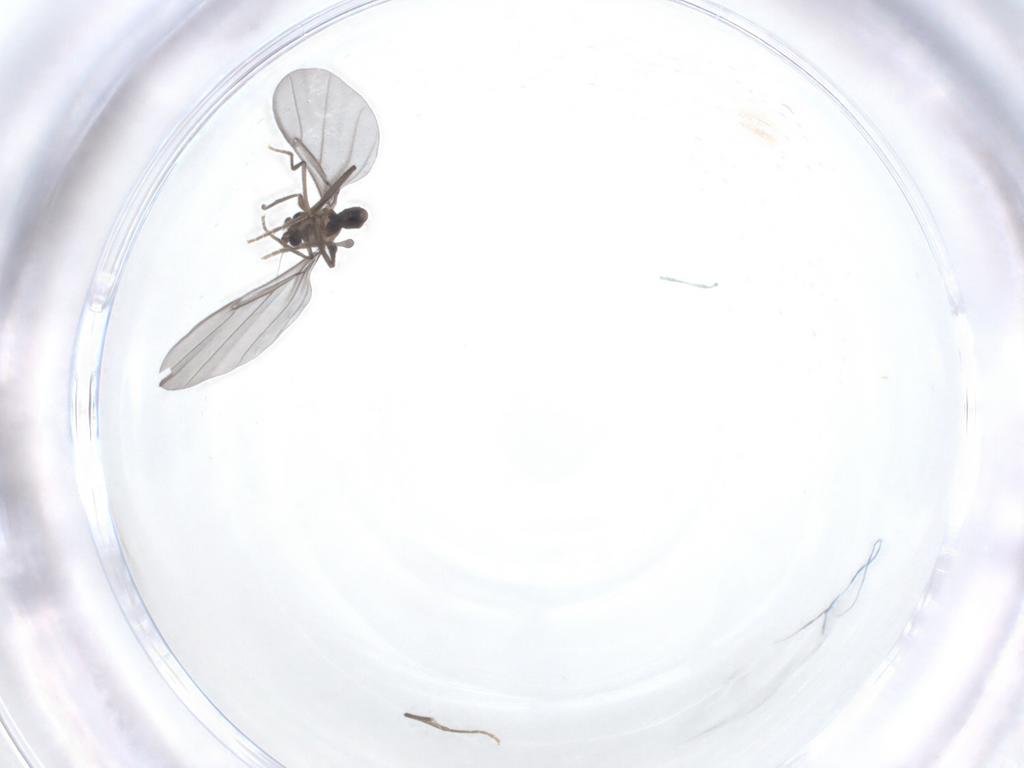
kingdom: Animalia
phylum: Arthropoda
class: Insecta
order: Diptera
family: Phoridae
